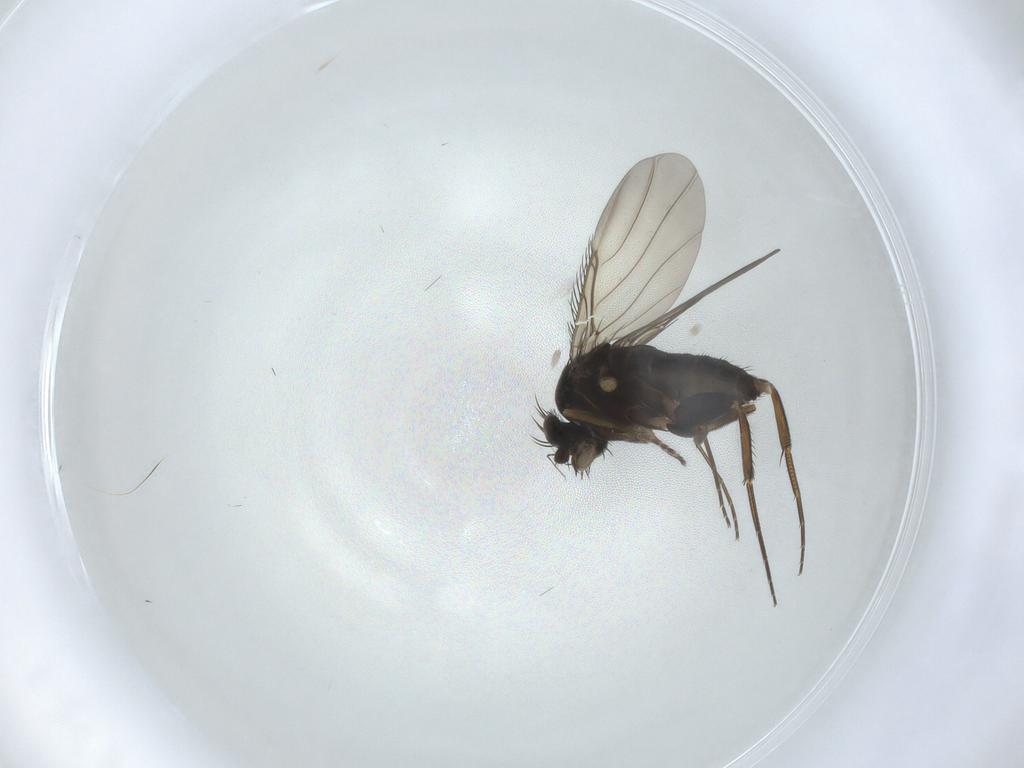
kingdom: Animalia
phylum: Arthropoda
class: Insecta
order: Diptera
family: Phoridae
